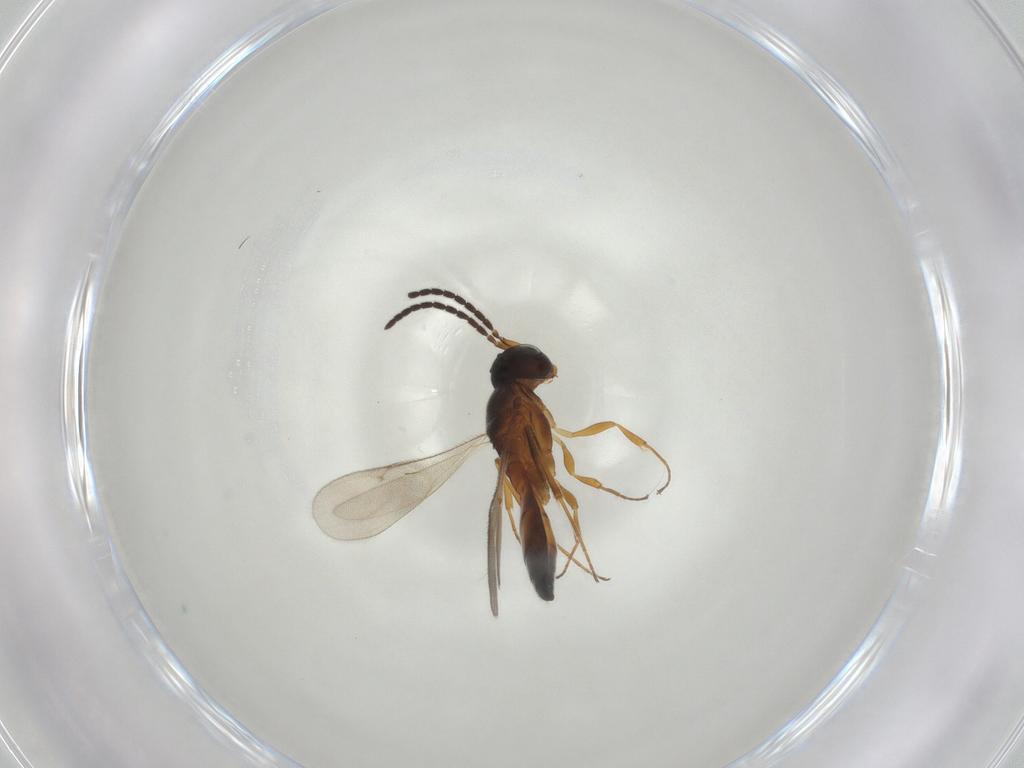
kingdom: Animalia
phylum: Arthropoda
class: Insecta
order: Hymenoptera
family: Scelionidae
